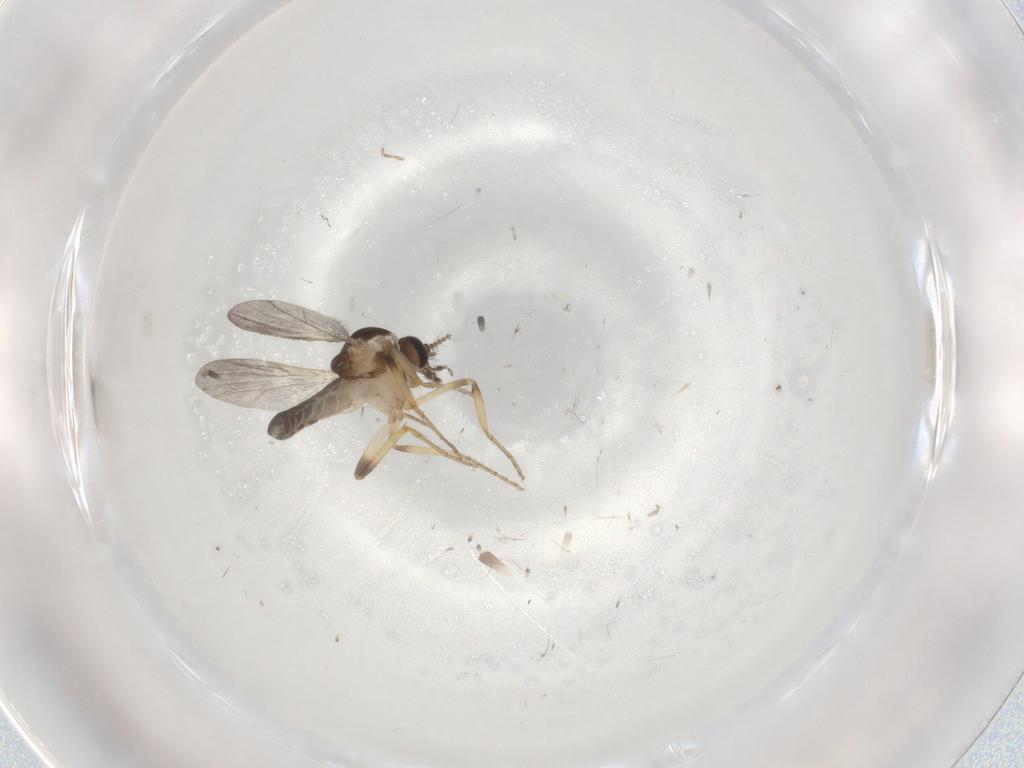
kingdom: Animalia
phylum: Arthropoda
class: Insecta
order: Diptera
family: Ceratopogonidae
